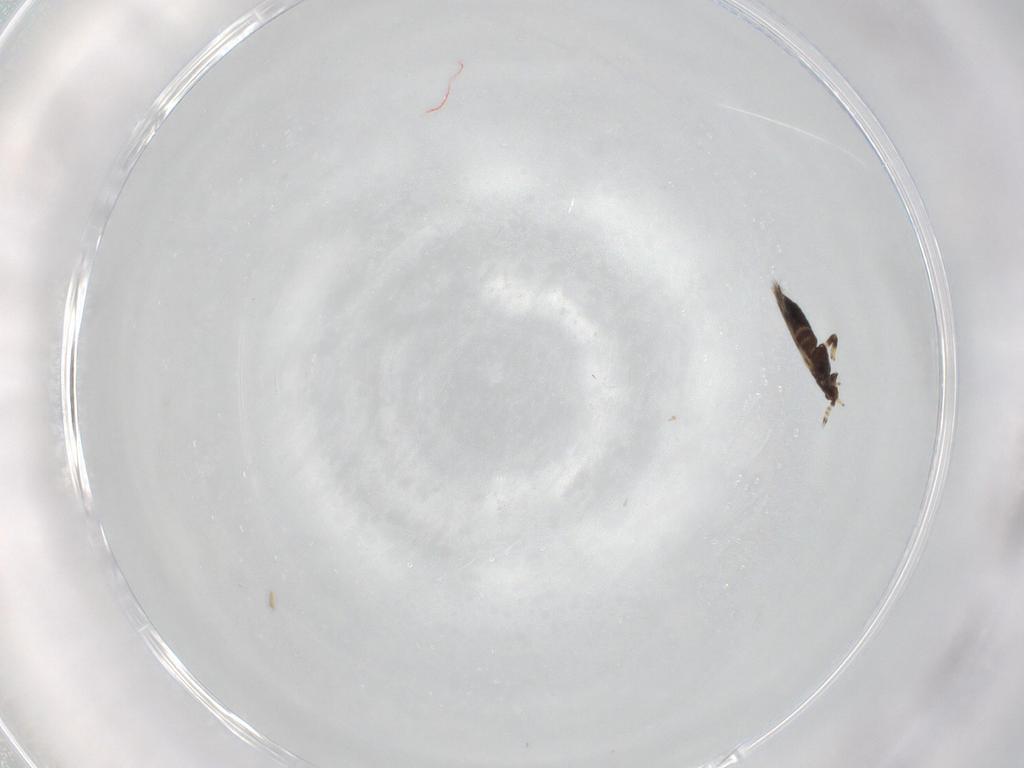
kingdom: Animalia
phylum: Arthropoda
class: Insecta
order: Thysanoptera
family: Thripidae
